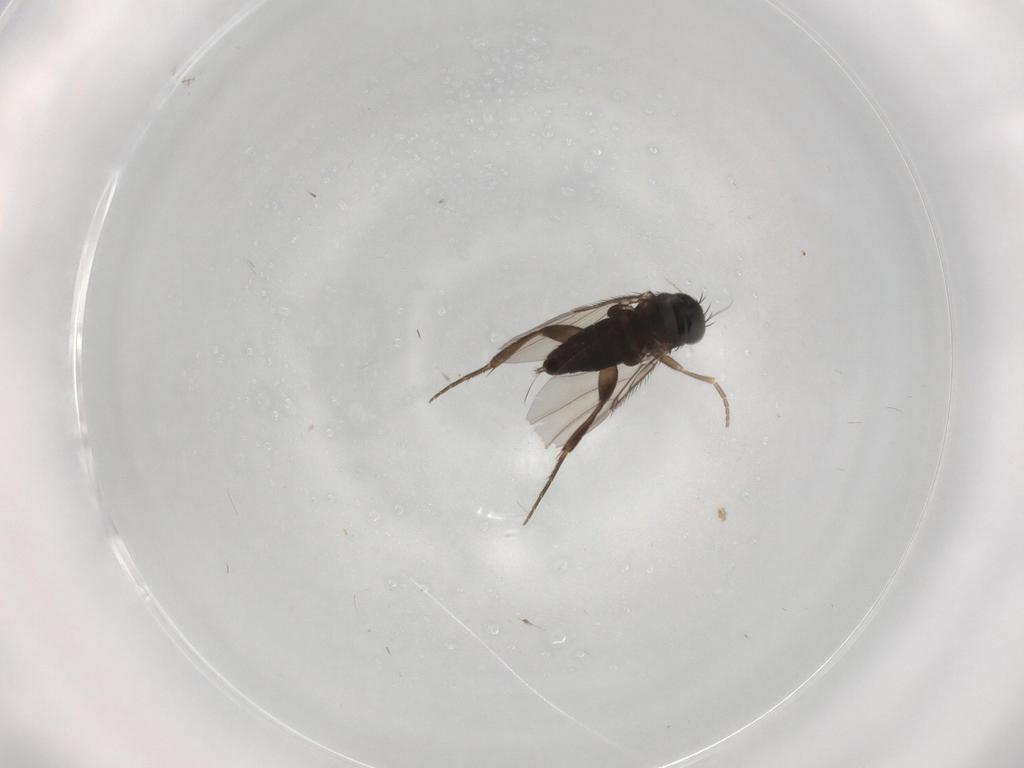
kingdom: Animalia
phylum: Arthropoda
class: Insecta
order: Diptera
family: Phoridae
